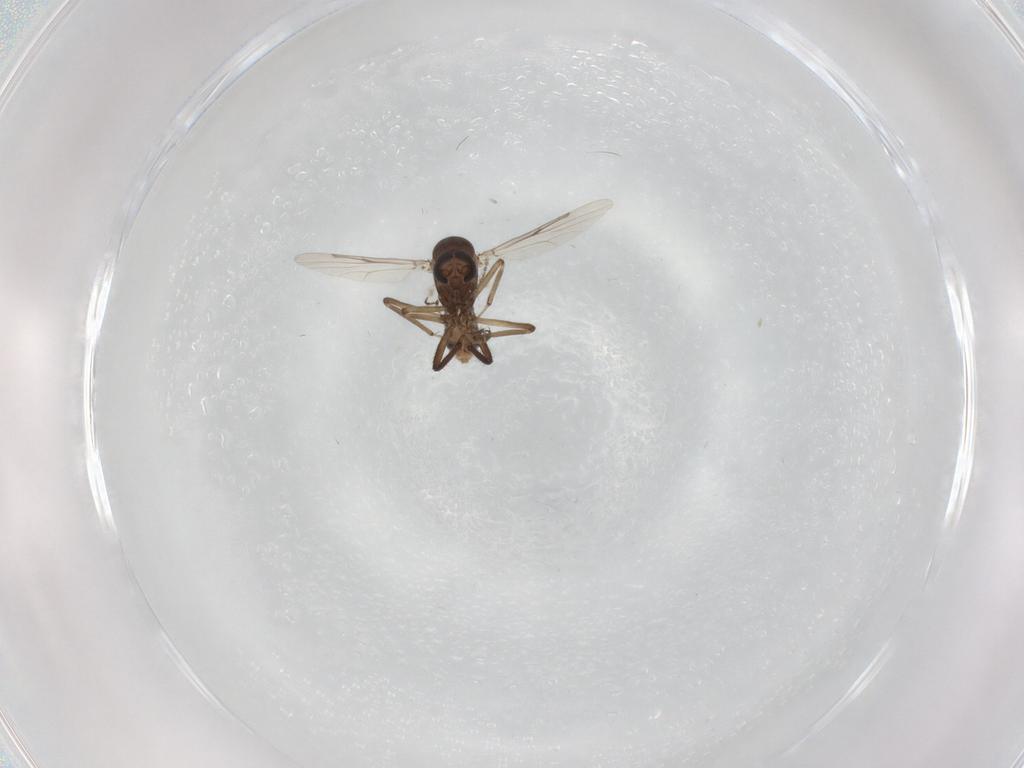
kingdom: Animalia
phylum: Arthropoda
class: Insecta
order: Diptera
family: Ceratopogonidae
